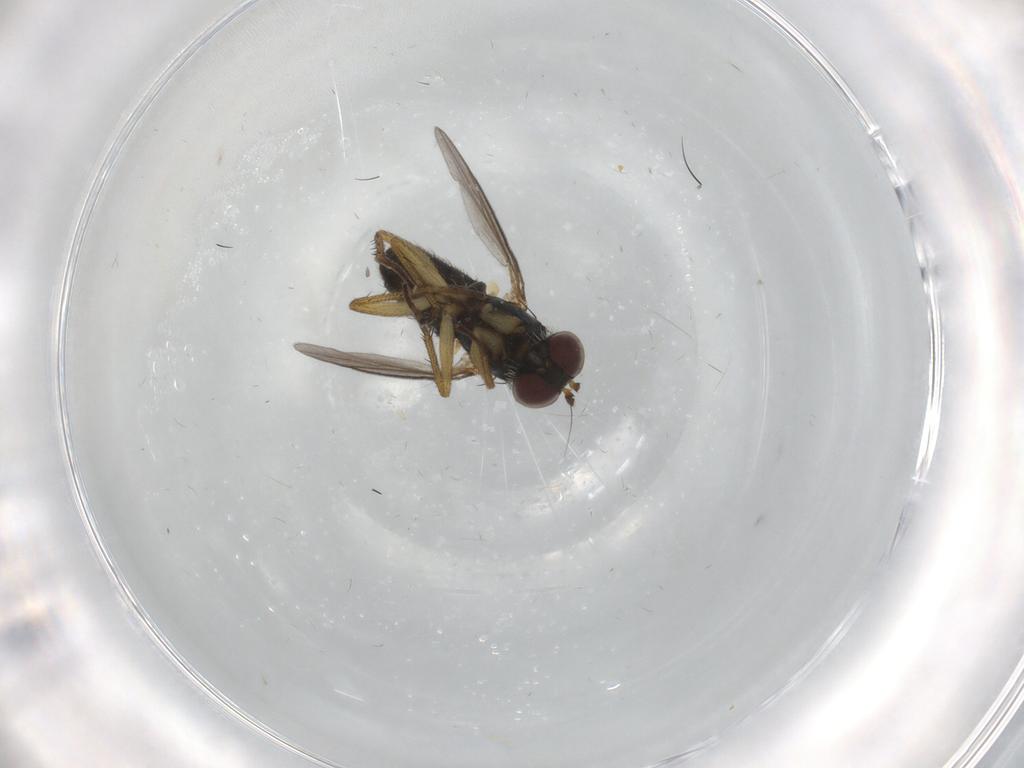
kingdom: Animalia
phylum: Arthropoda
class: Insecta
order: Diptera
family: Dolichopodidae
